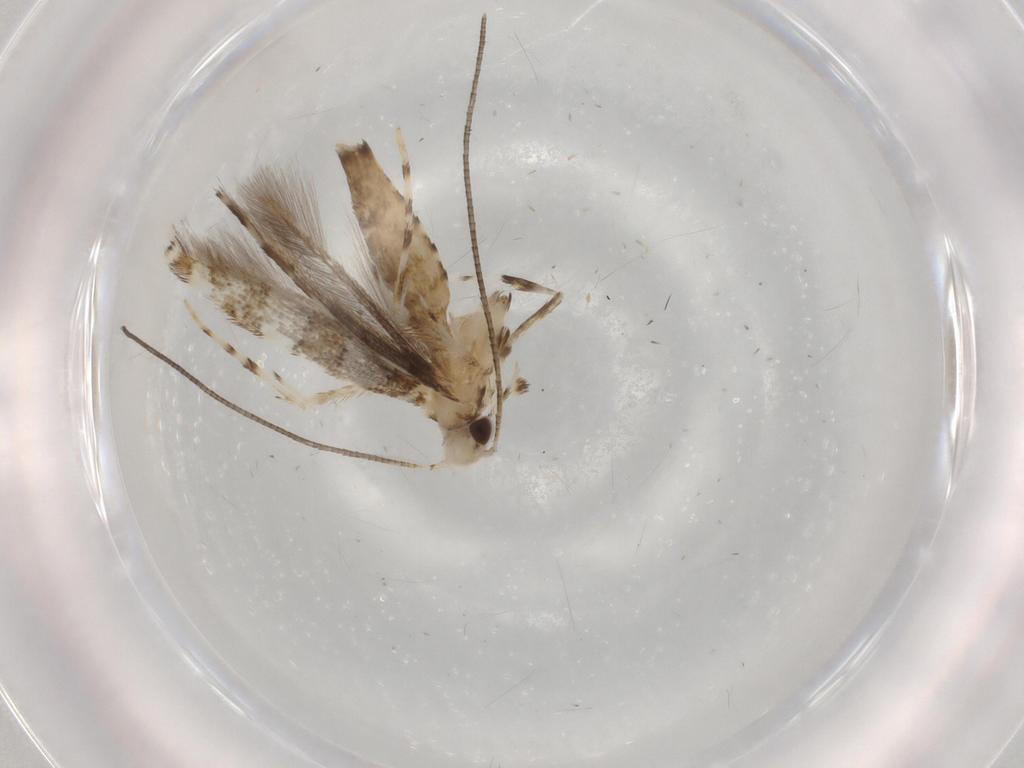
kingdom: Animalia
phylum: Arthropoda
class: Insecta
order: Lepidoptera
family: Gracillariidae
